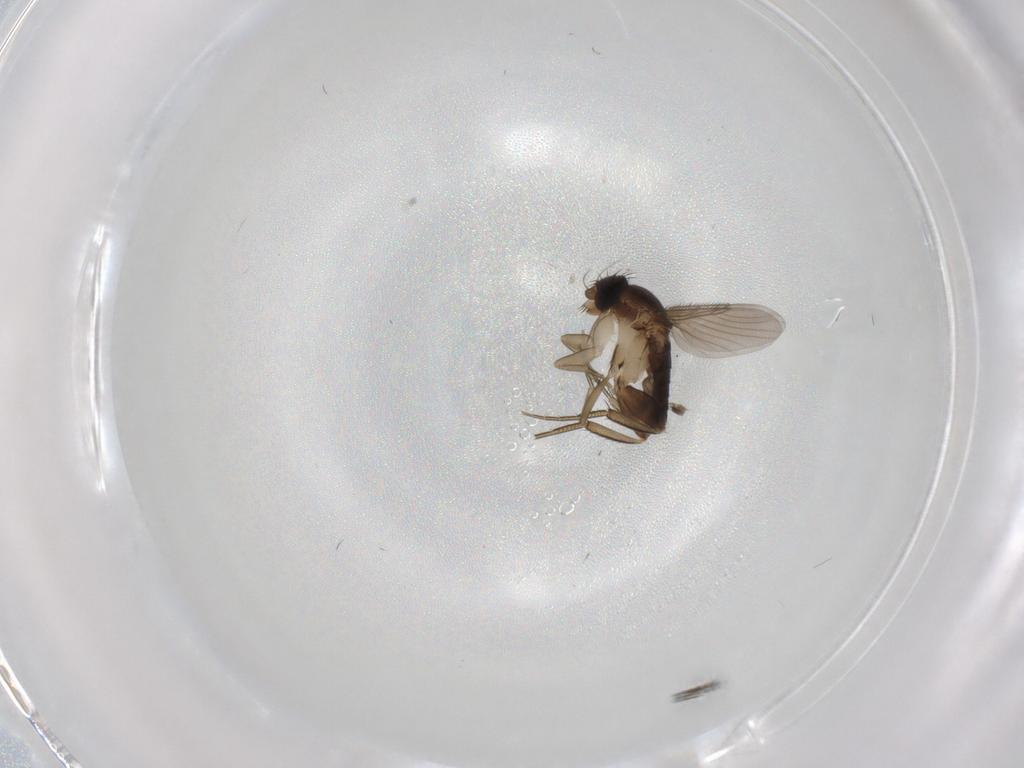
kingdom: Animalia
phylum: Arthropoda
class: Insecta
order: Diptera
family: Phoridae
